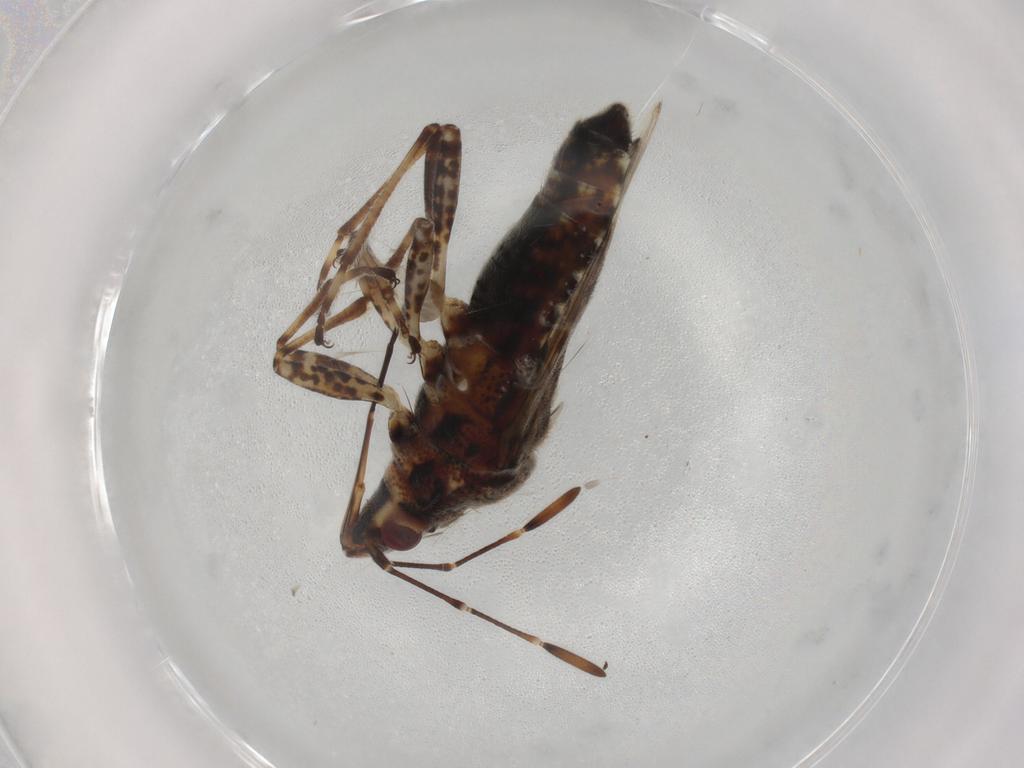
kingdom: Animalia
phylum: Arthropoda
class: Insecta
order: Hemiptera
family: Lygaeidae
